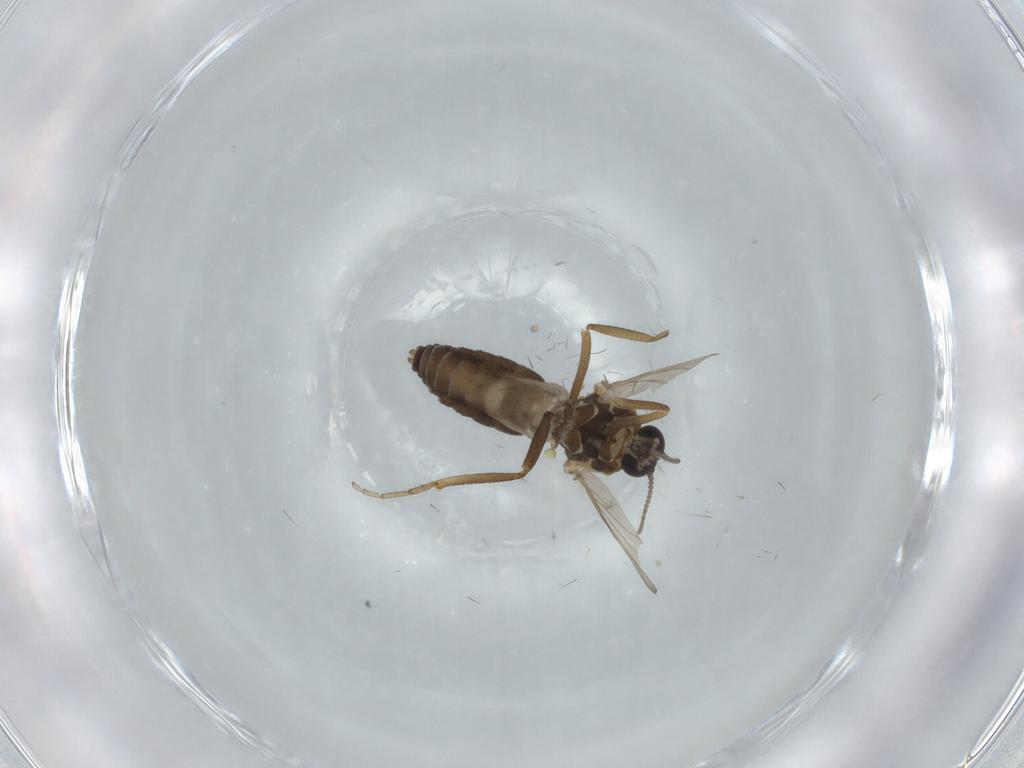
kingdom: Animalia
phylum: Arthropoda
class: Insecta
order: Diptera
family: Ceratopogonidae
